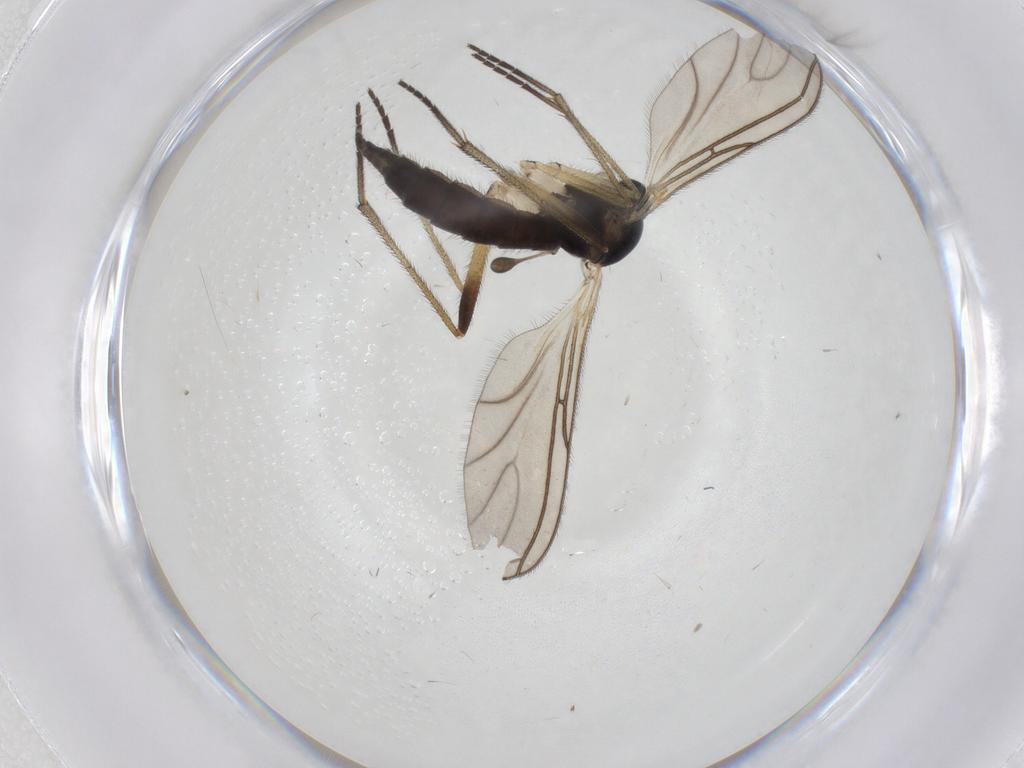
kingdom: Animalia
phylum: Arthropoda
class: Insecta
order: Diptera
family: Sciaridae
